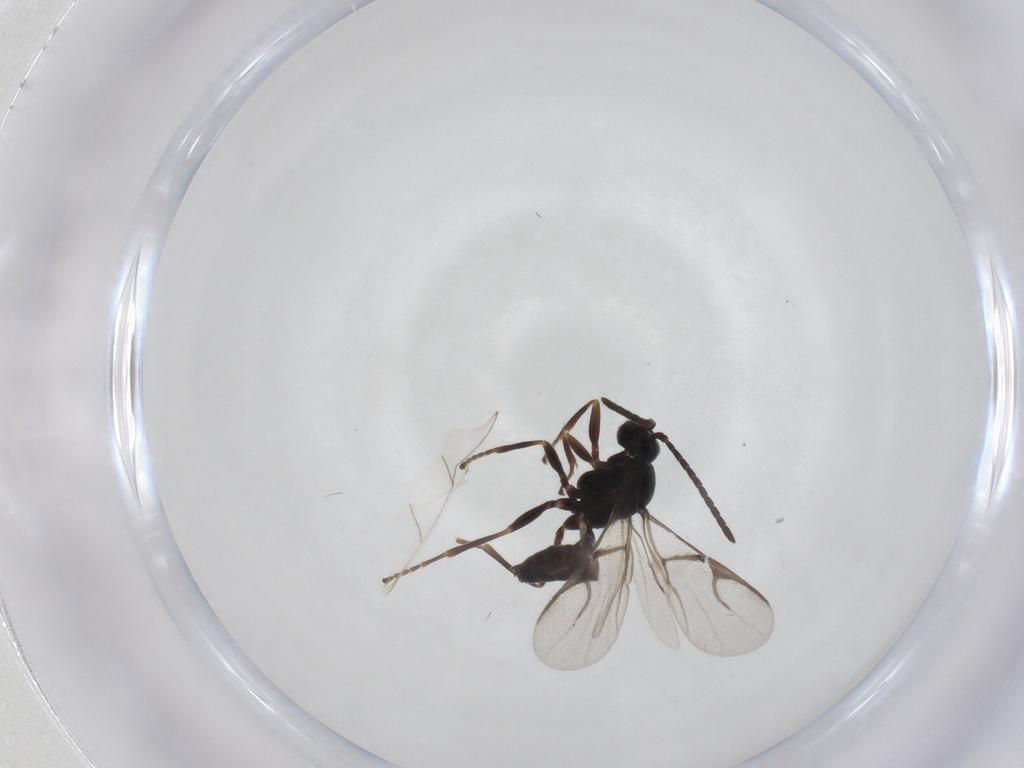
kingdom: Animalia
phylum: Arthropoda
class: Insecta
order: Hymenoptera
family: Braconidae
